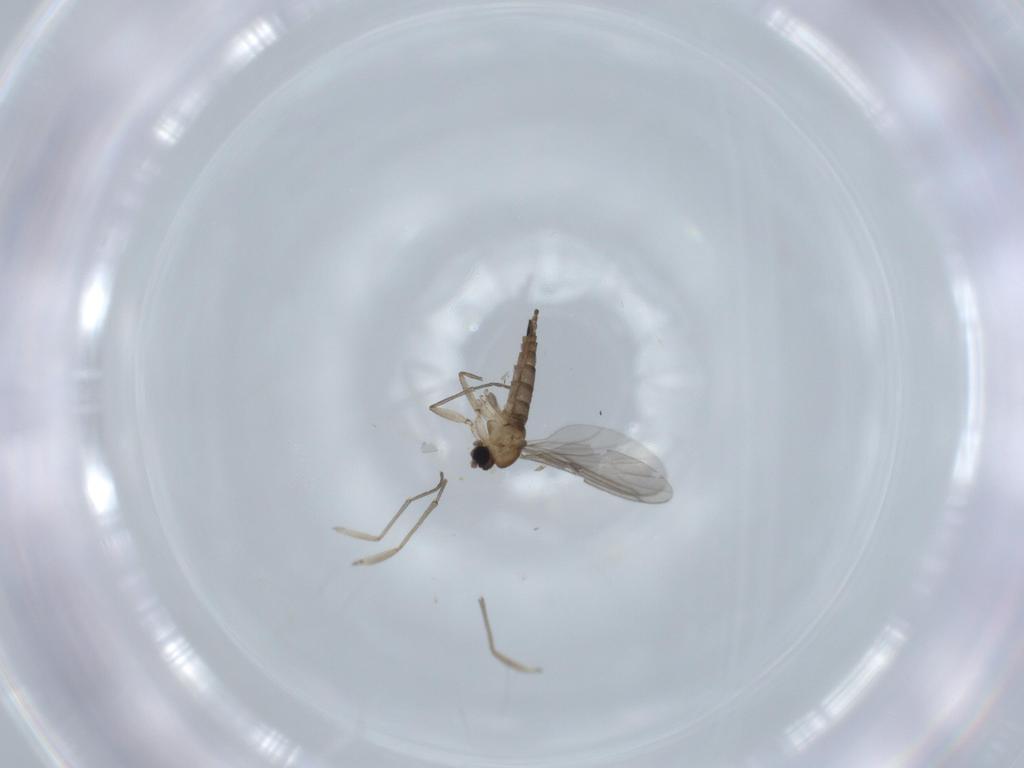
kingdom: Animalia
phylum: Arthropoda
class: Insecta
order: Diptera
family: Sciaridae
